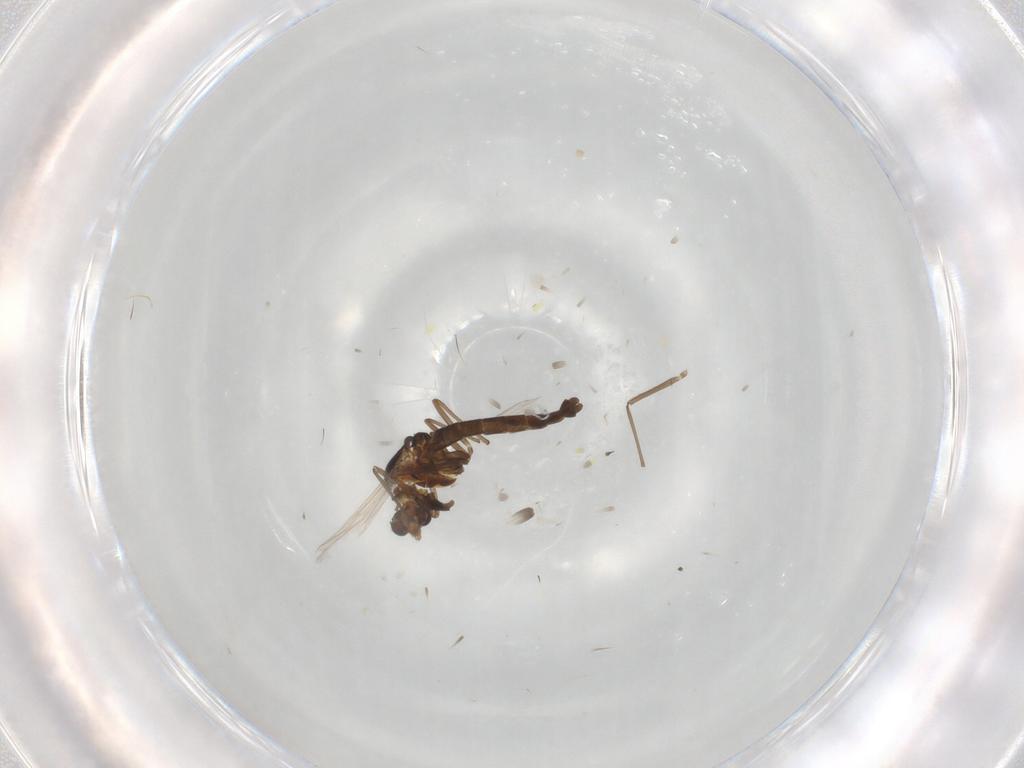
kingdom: Animalia
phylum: Arthropoda
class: Insecta
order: Diptera
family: Chironomidae
